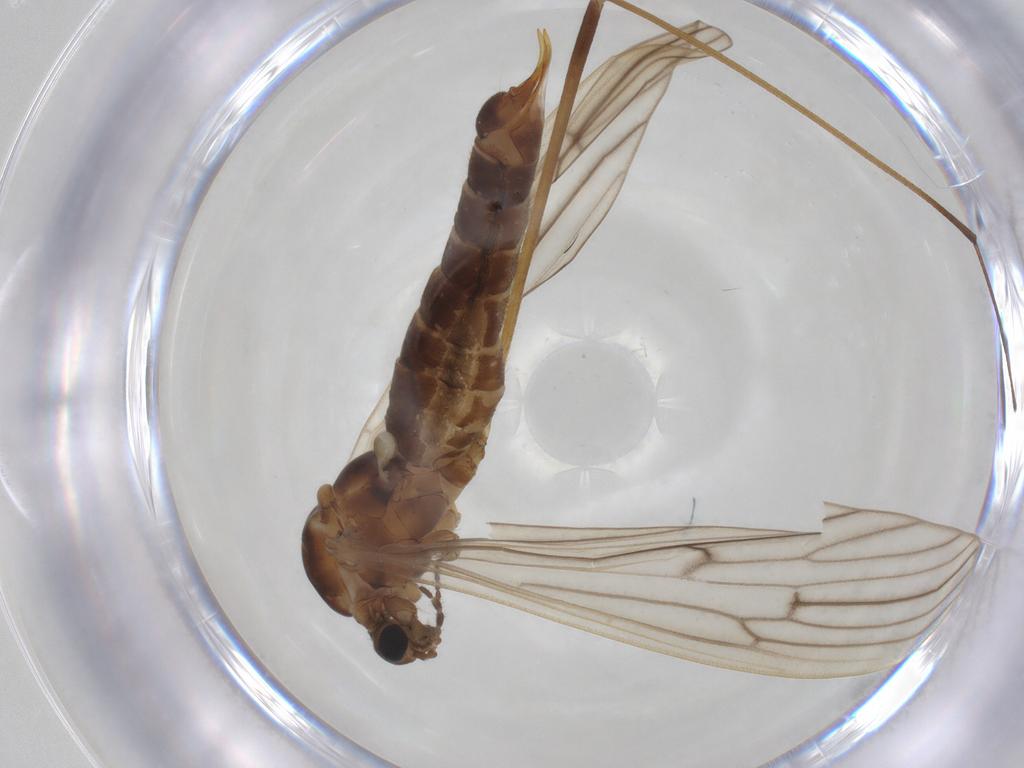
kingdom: Animalia
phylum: Arthropoda
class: Insecta
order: Diptera
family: Limoniidae
